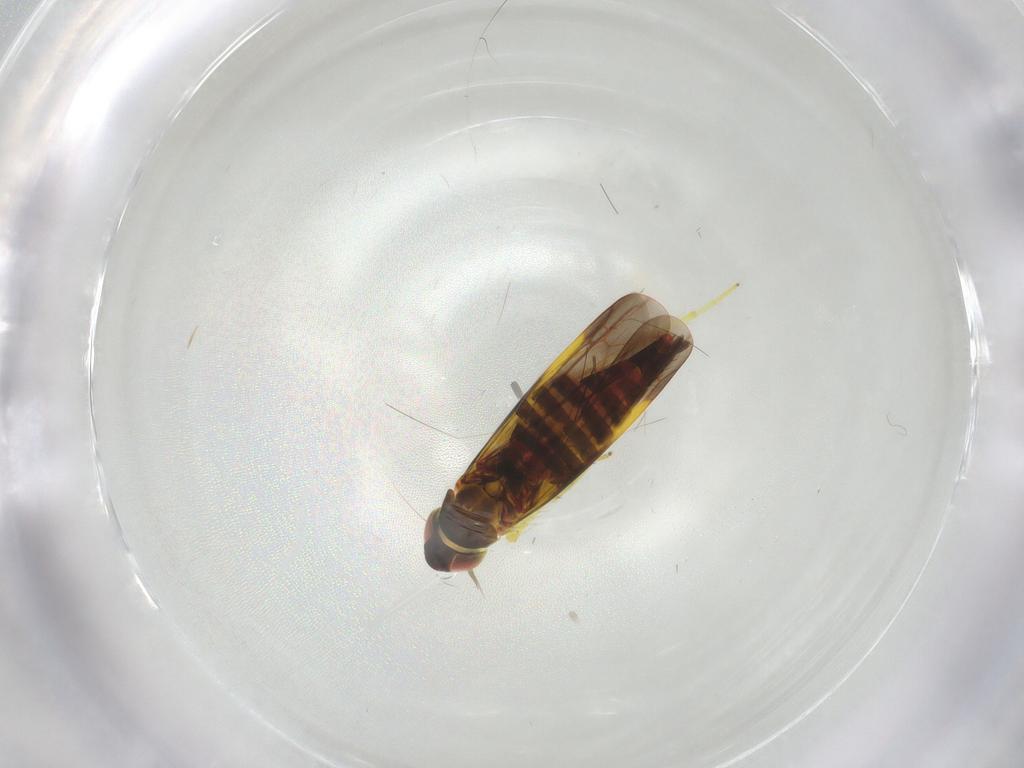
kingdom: Animalia
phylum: Arthropoda
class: Insecta
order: Hemiptera
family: Cicadellidae
